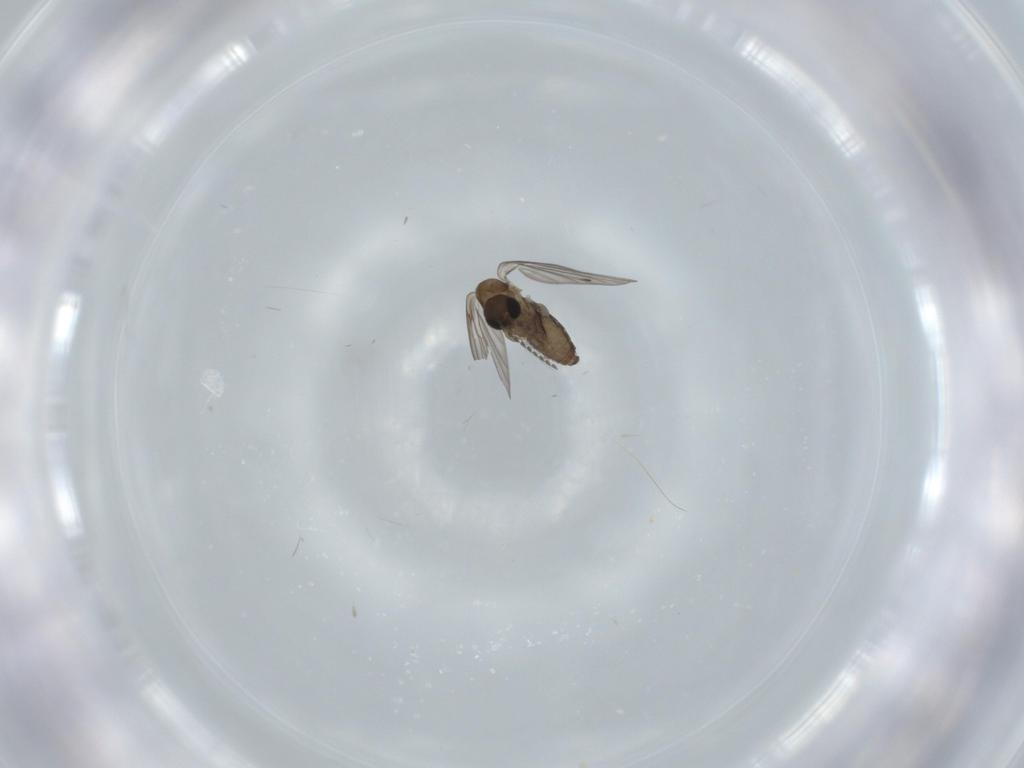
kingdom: Animalia
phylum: Arthropoda
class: Insecta
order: Diptera
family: Psychodidae
